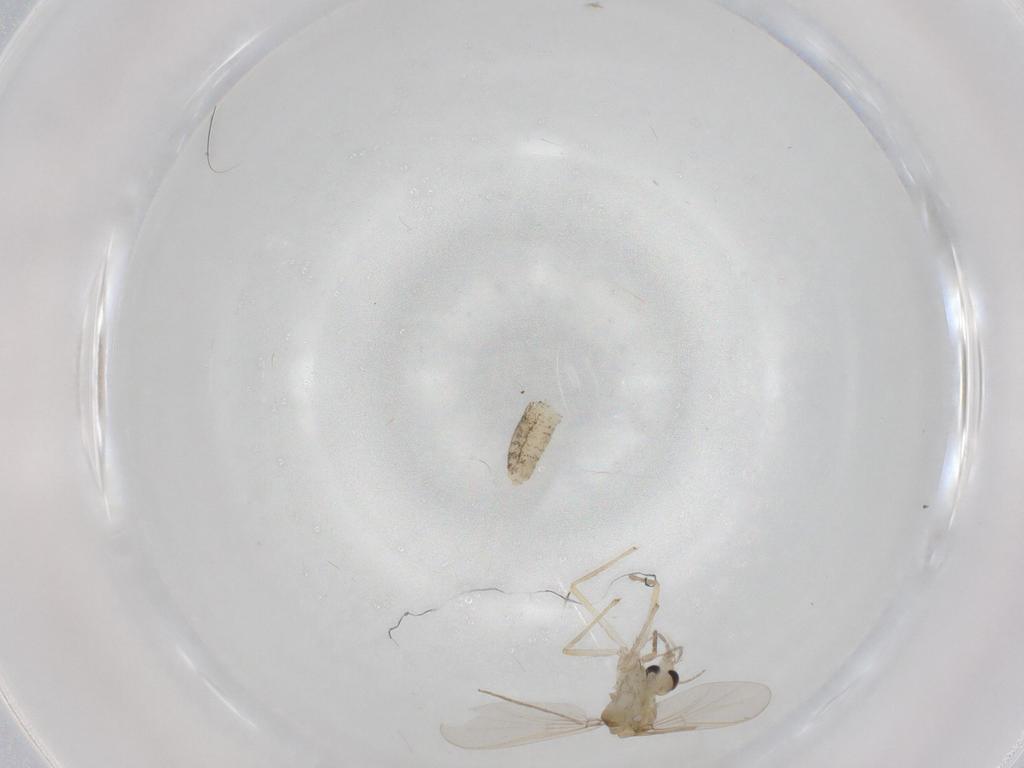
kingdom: Animalia
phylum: Arthropoda
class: Insecta
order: Diptera
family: Chironomidae
